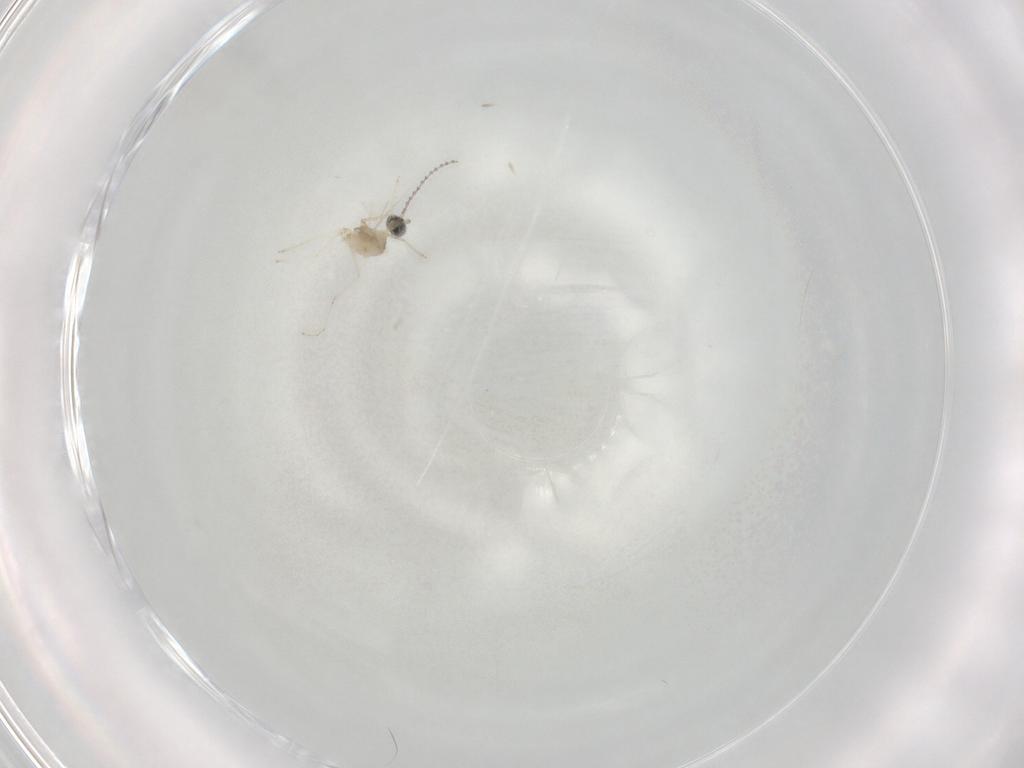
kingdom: Animalia
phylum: Arthropoda
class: Insecta
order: Diptera
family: Cecidomyiidae
